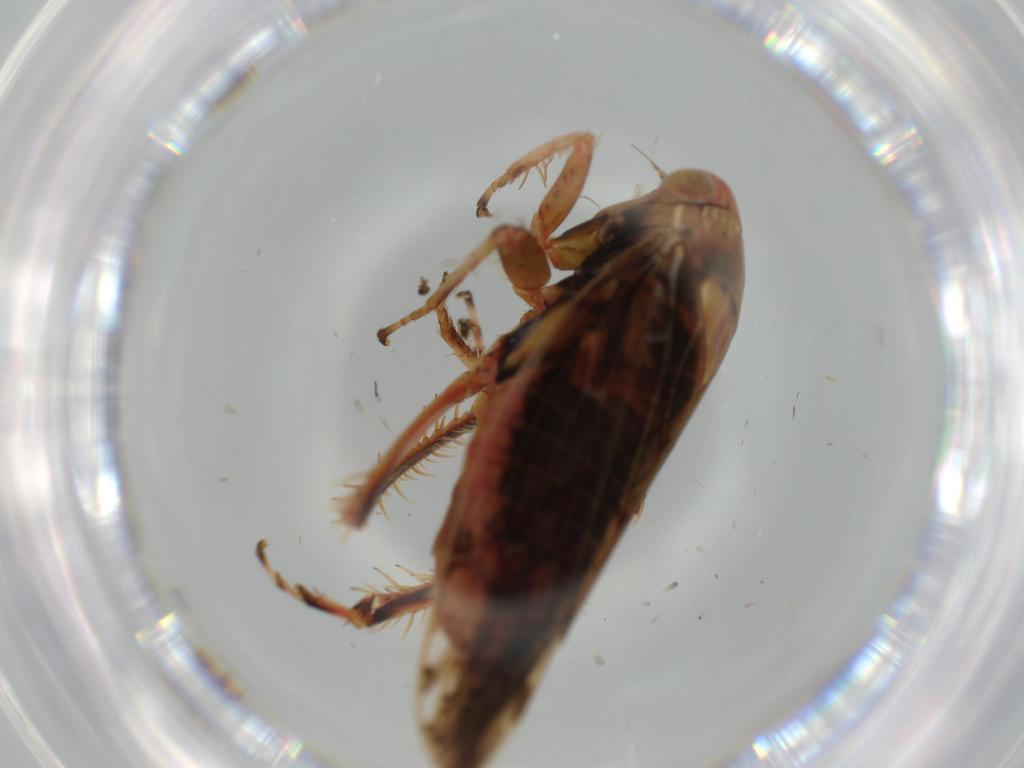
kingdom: Animalia
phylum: Arthropoda
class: Insecta
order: Hemiptera
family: Cicadellidae
